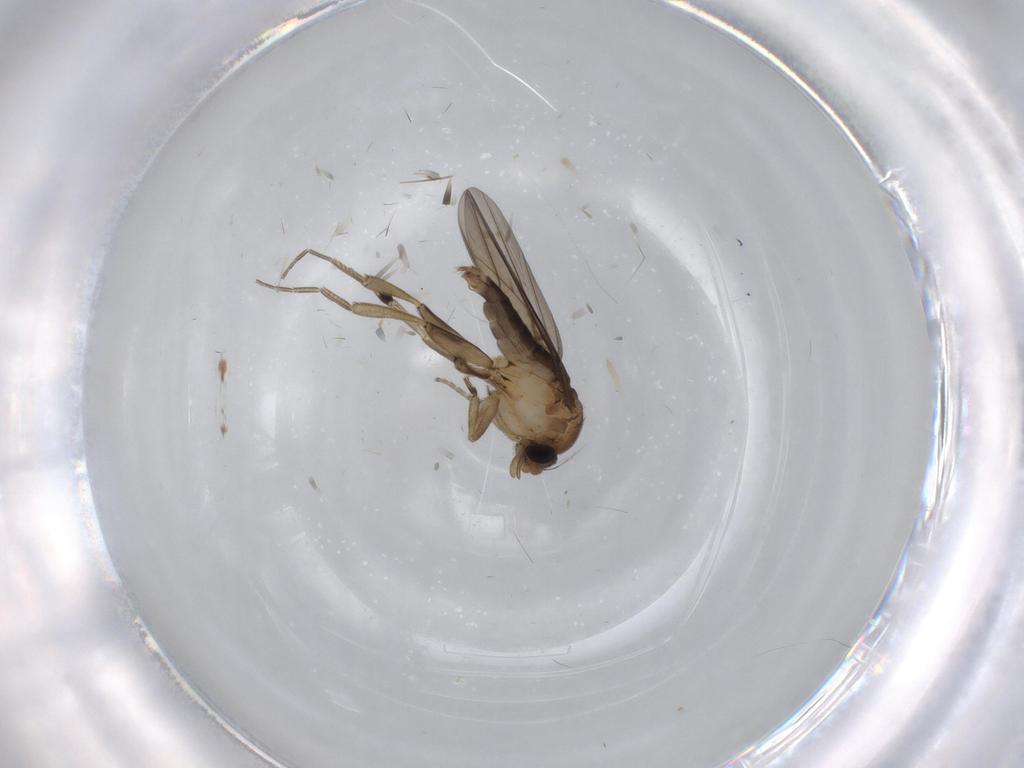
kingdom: Animalia
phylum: Arthropoda
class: Insecta
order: Diptera
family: Phoridae
